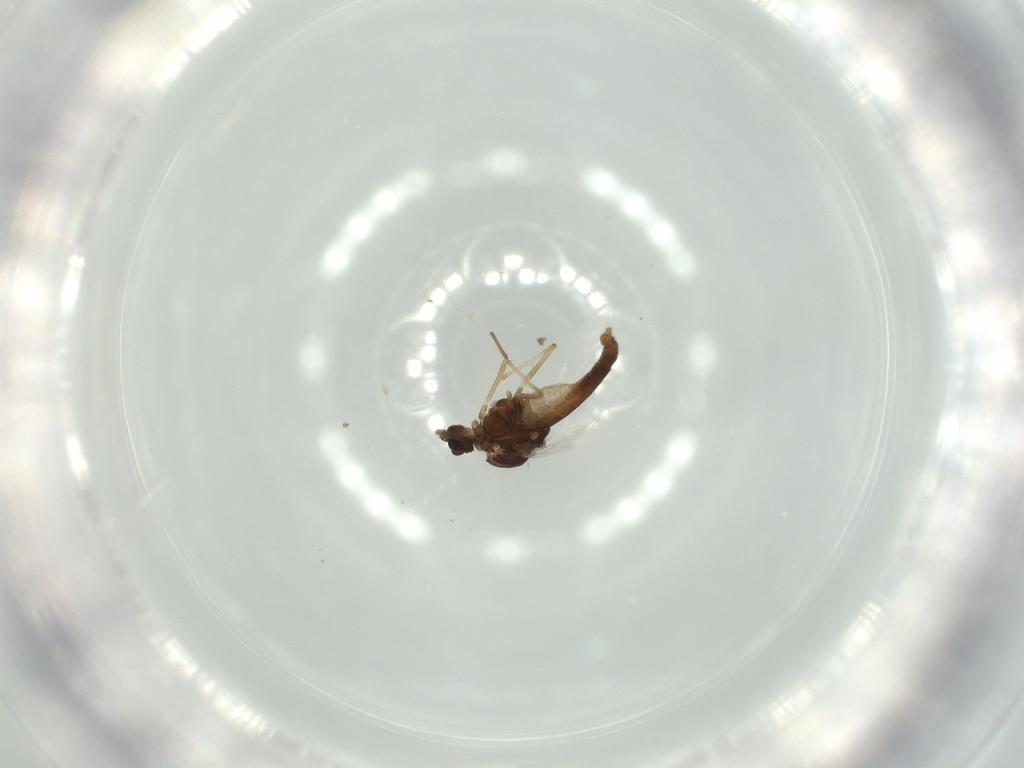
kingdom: Animalia
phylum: Arthropoda
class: Insecta
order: Diptera
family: Chironomidae
